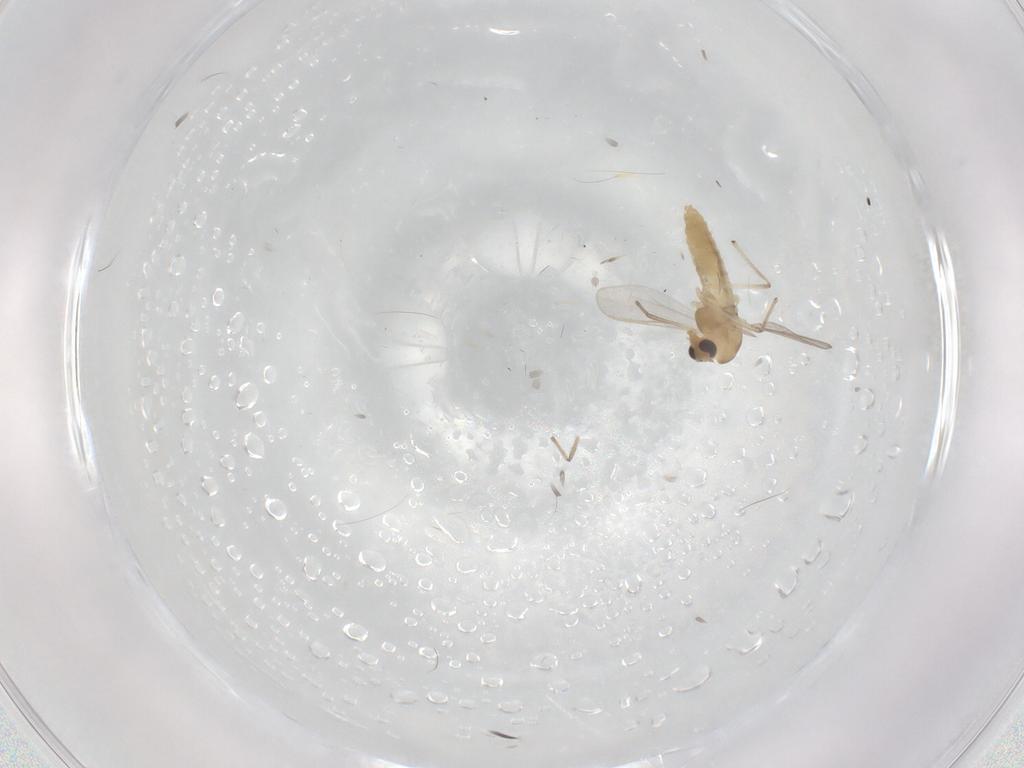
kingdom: Animalia
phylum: Arthropoda
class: Insecta
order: Diptera
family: Chironomidae
